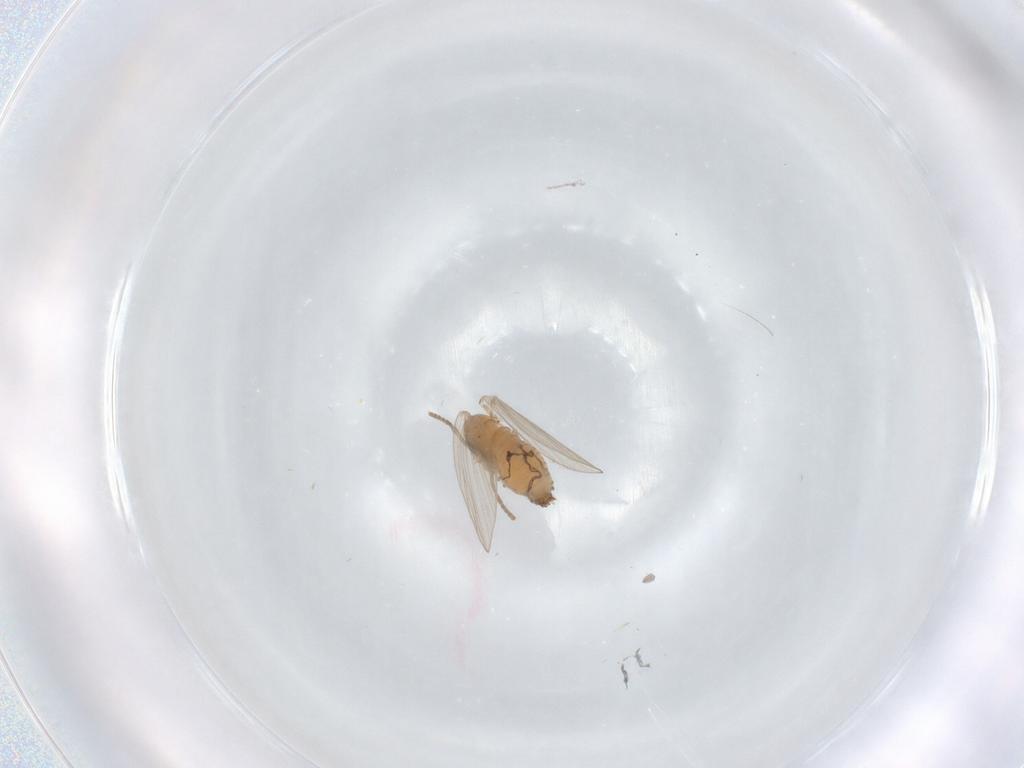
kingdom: Animalia
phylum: Arthropoda
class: Insecta
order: Diptera
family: Psychodidae
